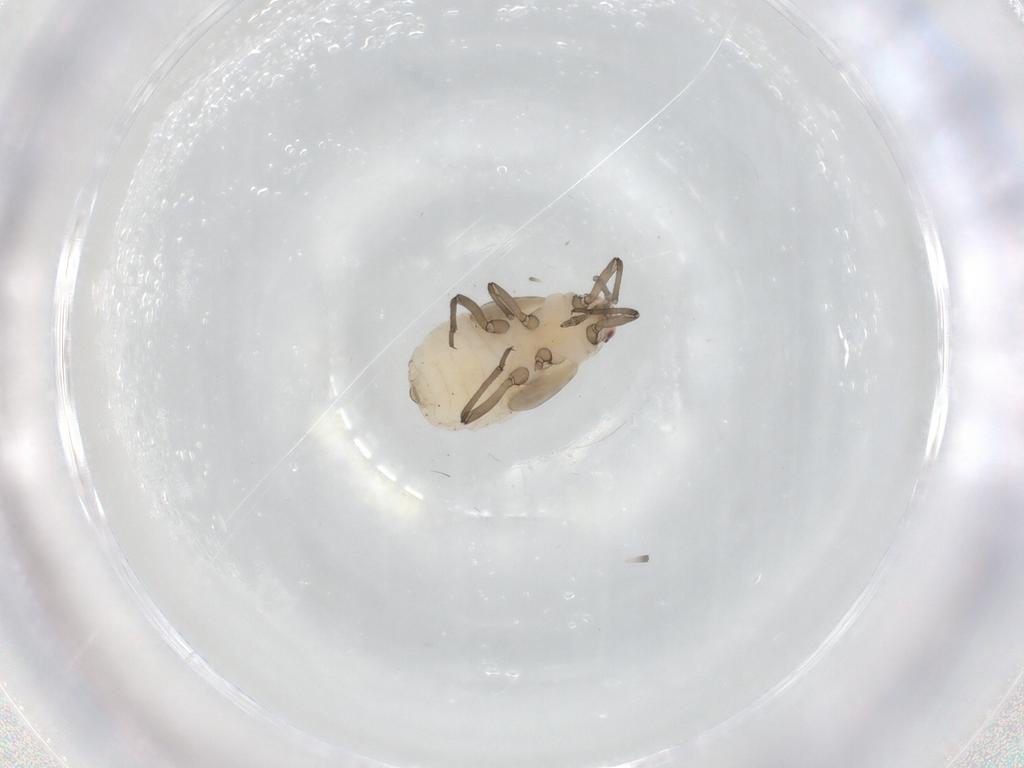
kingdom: Animalia
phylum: Arthropoda
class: Insecta
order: Hemiptera
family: Aphididae
